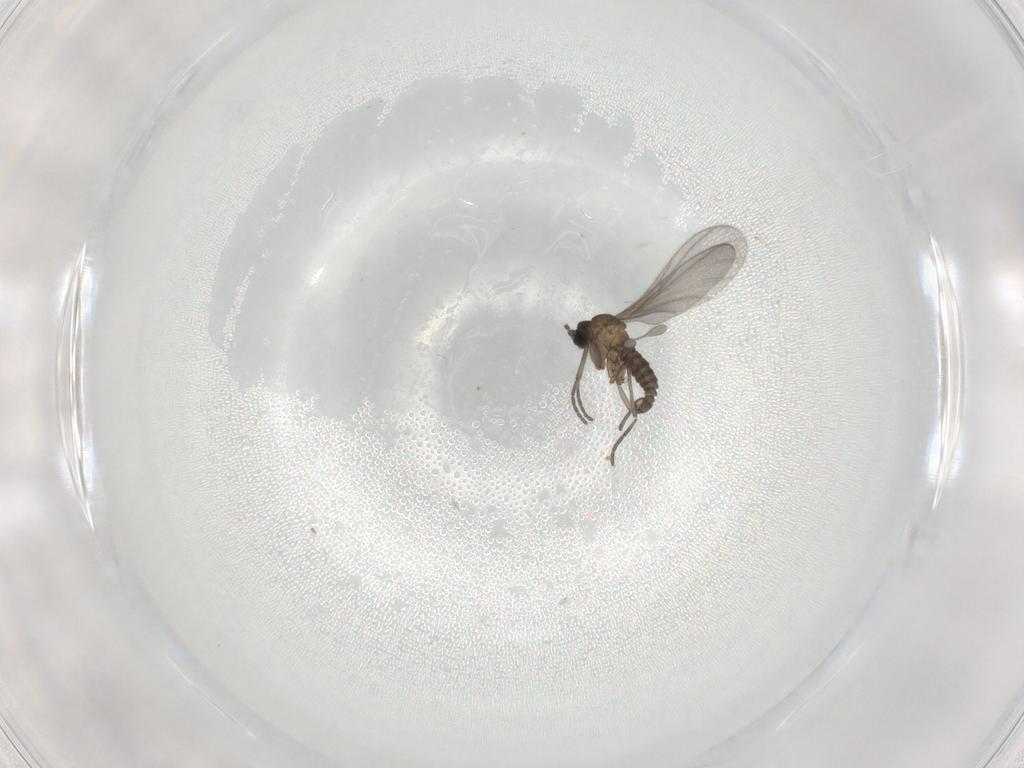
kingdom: Animalia
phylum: Arthropoda
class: Insecta
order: Diptera
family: Sciaridae
